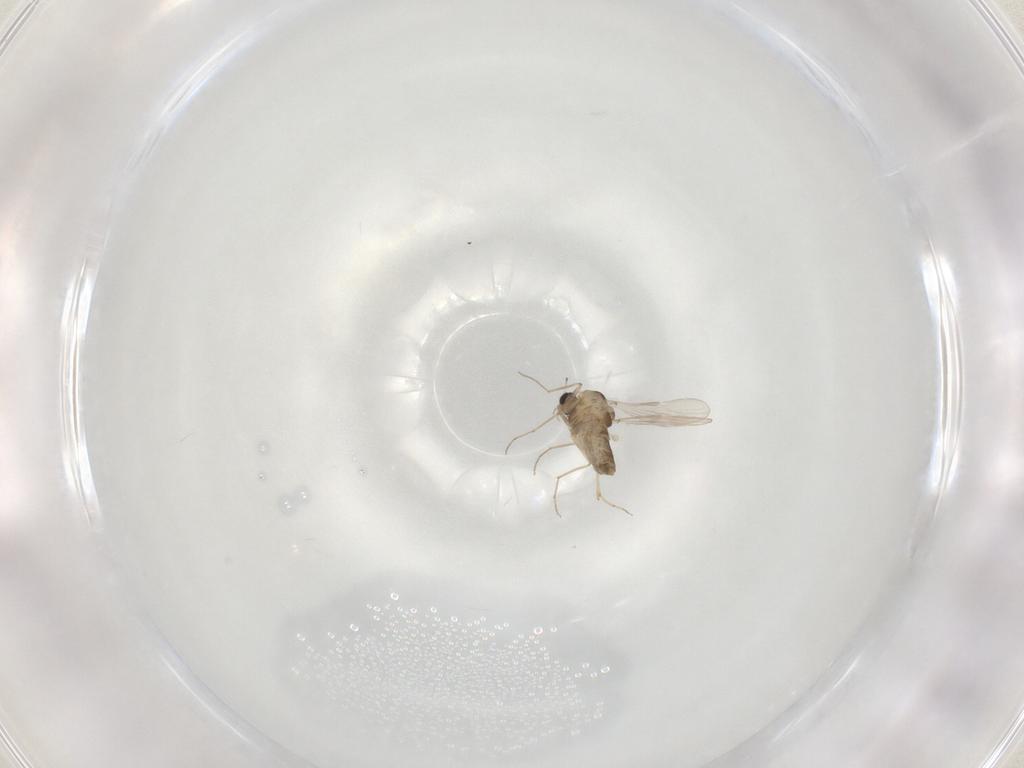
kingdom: Animalia
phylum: Arthropoda
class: Insecta
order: Diptera
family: Chironomidae
